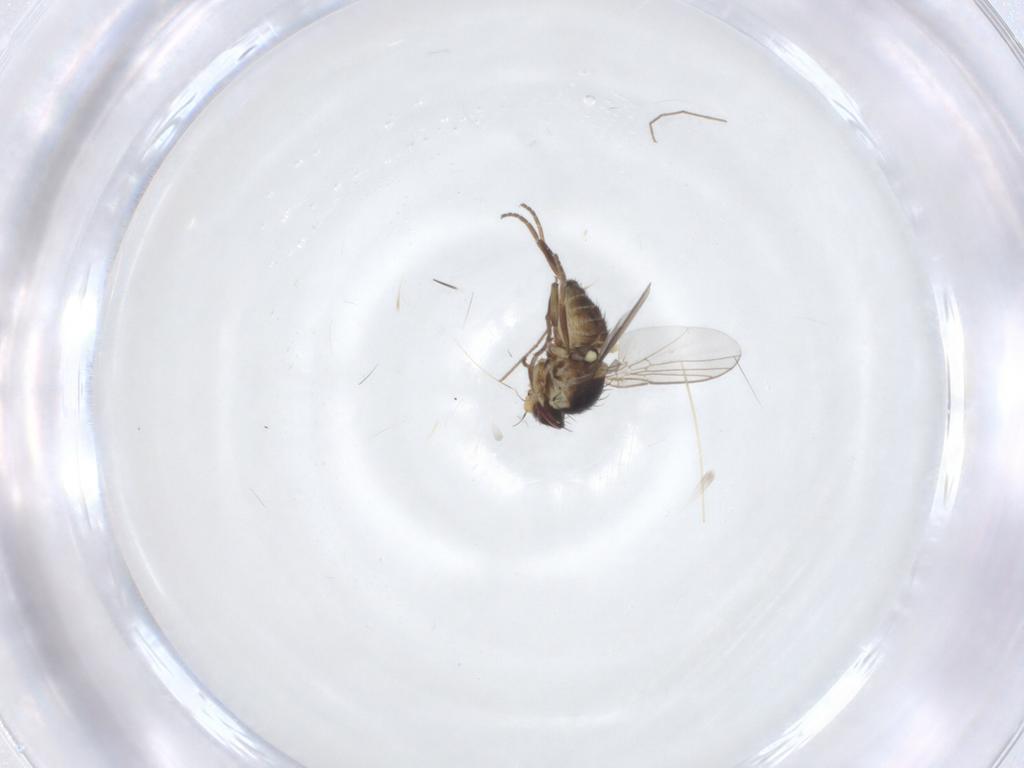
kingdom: Animalia
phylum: Arthropoda
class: Insecta
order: Diptera
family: Agromyzidae
